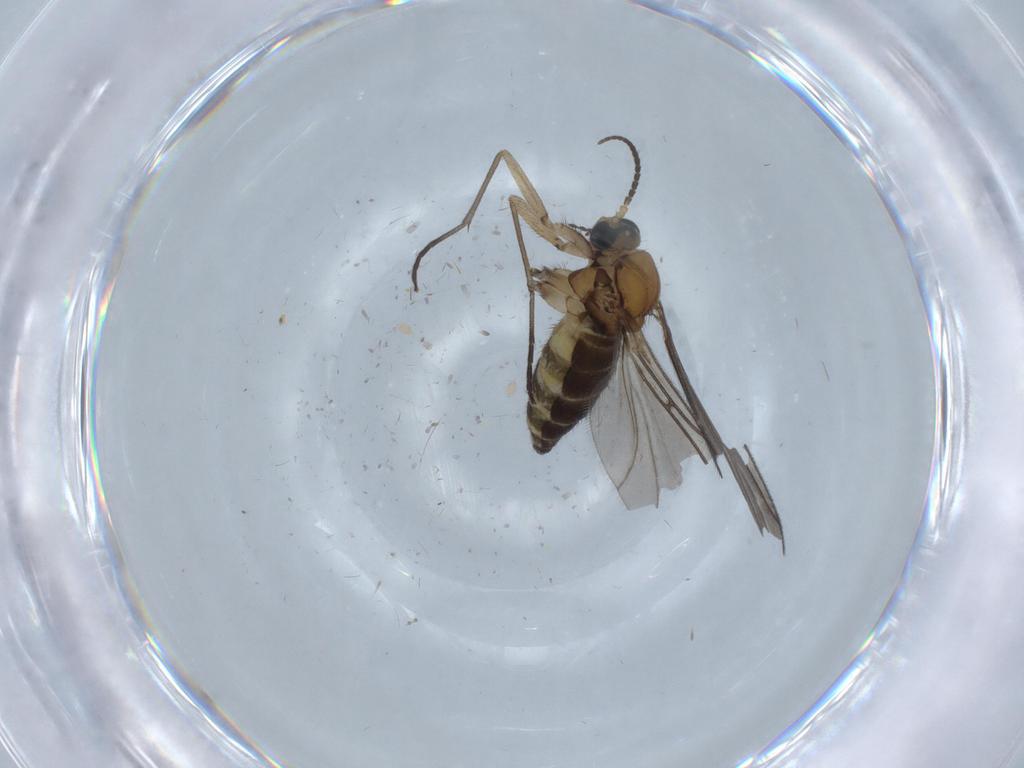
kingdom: Animalia
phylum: Arthropoda
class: Insecta
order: Diptera
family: Sciaridae
